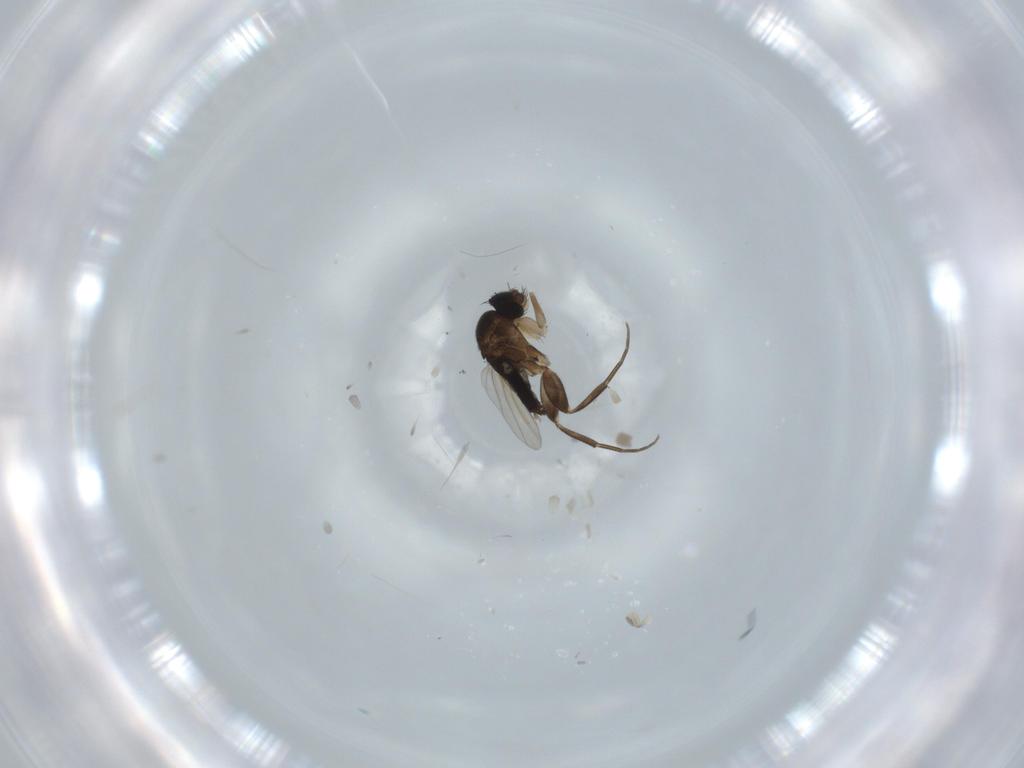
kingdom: Animalia
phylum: Arthropoda
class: Insecta
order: Diptera
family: Phoridae
